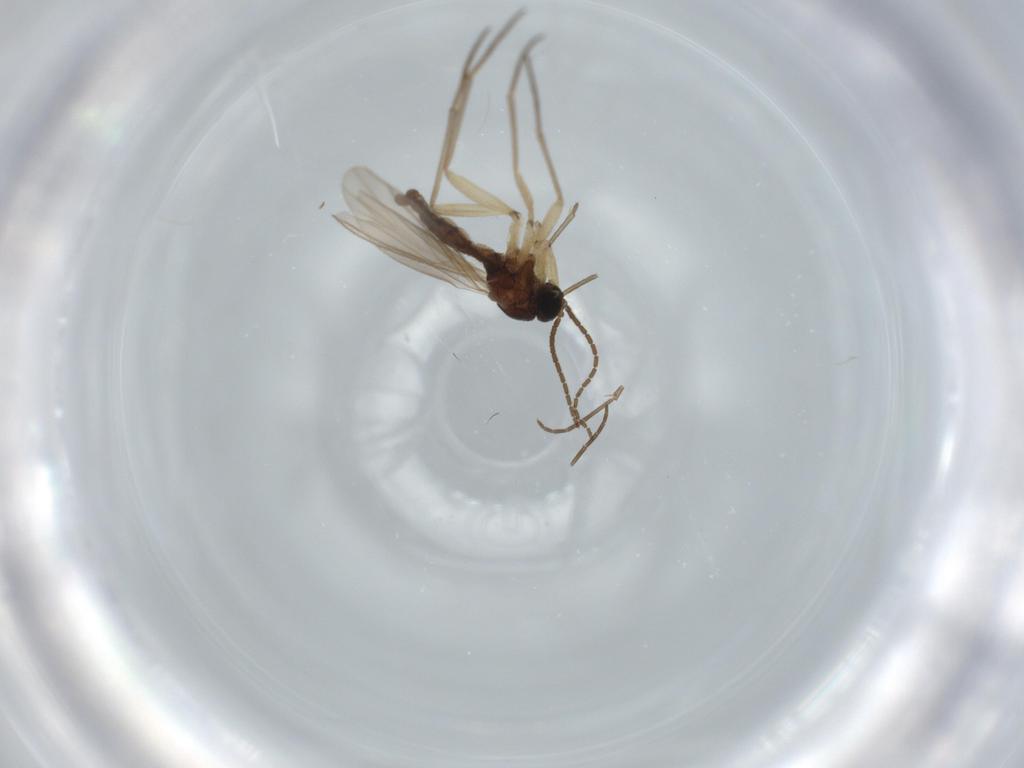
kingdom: Animalia
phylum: Arthropoda
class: Insecta
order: Diptera
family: Sciaridae
